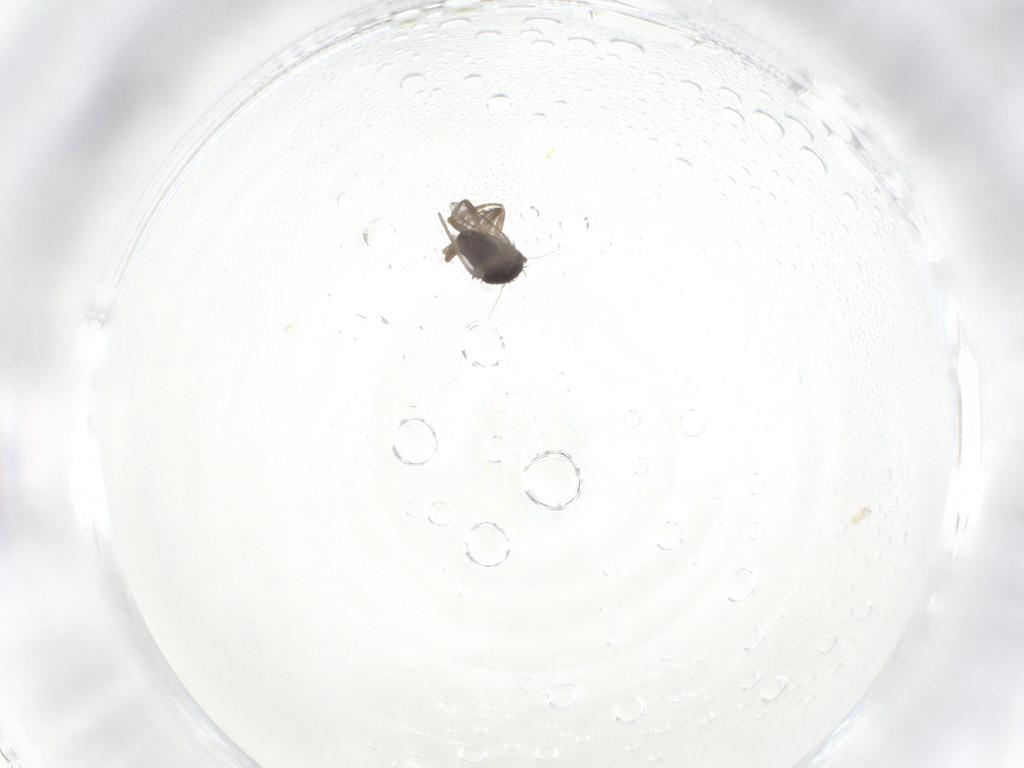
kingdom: Animalia
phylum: Arthropoda
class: Insecta
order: Diptera
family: Sphaeroceridae
